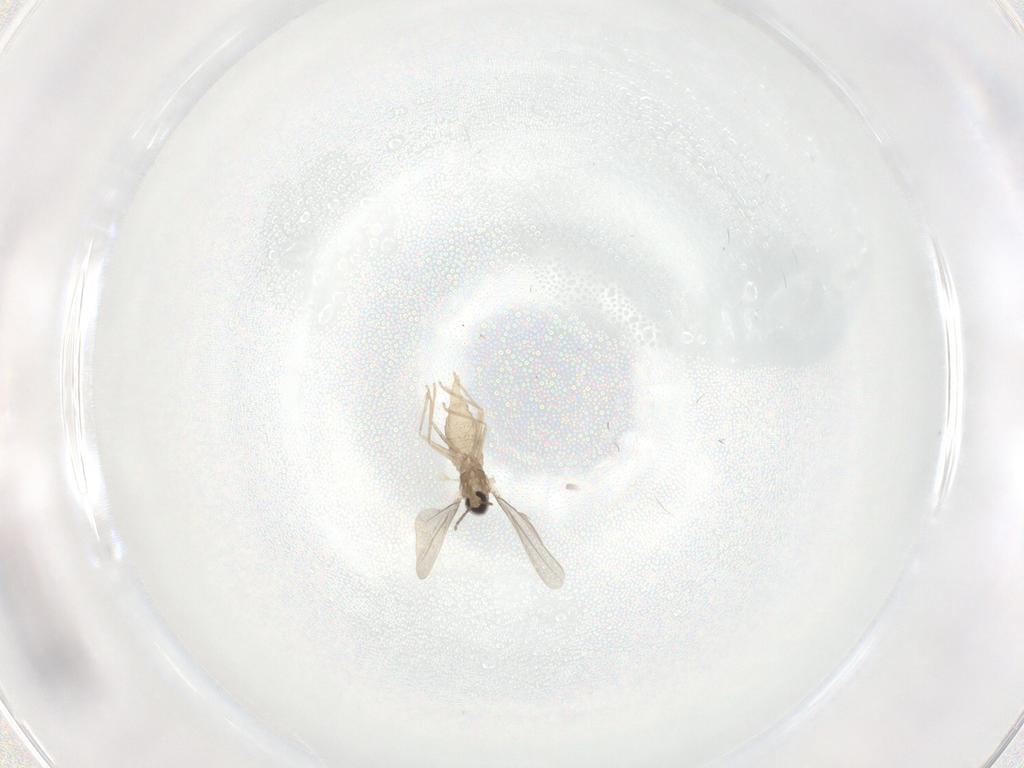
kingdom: Animalia
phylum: Arthropoda
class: Insecta
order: Diptera
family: Cecidomyiidae
